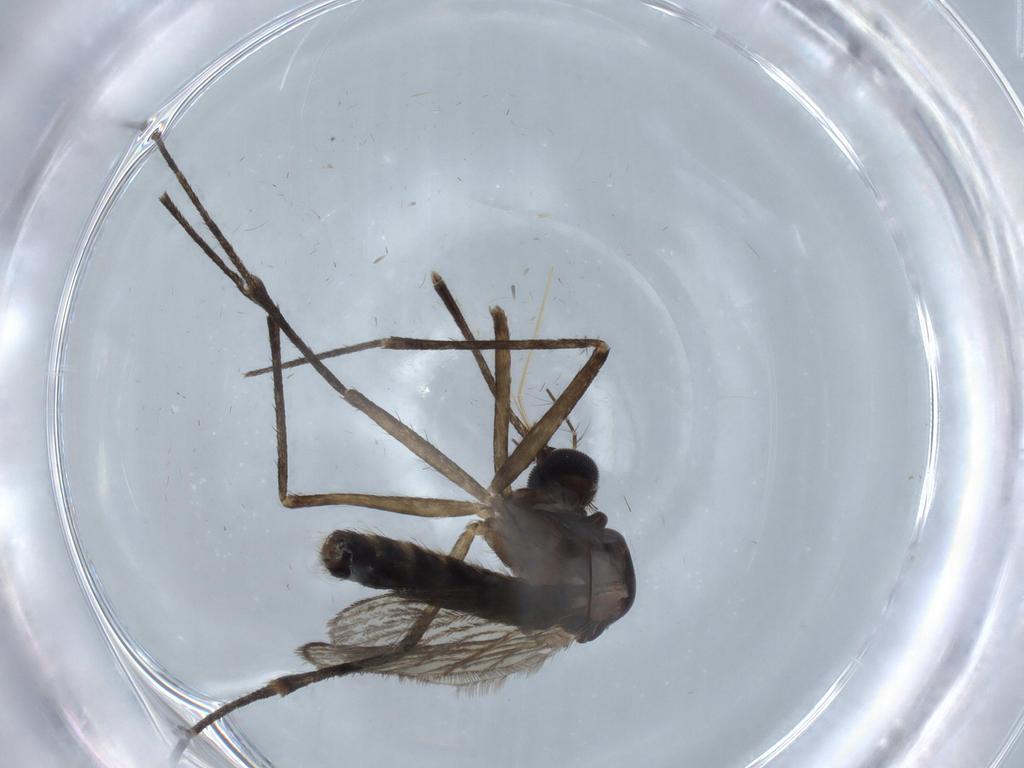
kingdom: Animalia
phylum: Arthropoda
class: Insecta
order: Diptera
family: Chironomidae
